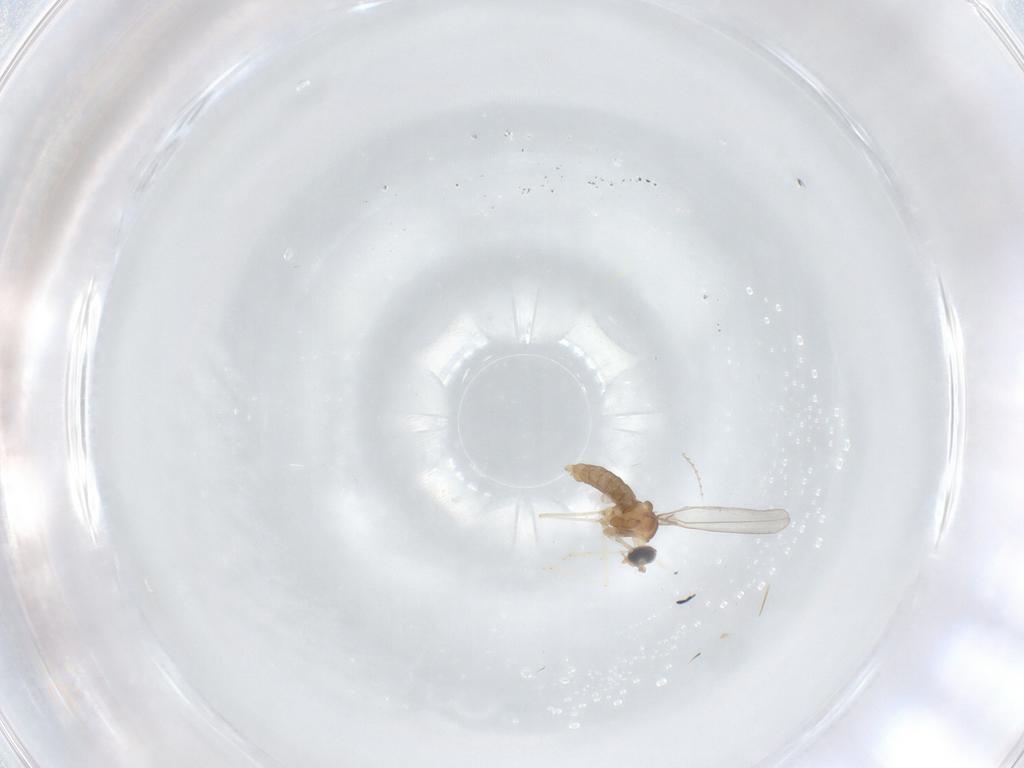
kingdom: Animalia
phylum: Arthropoda
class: Insecta
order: Diptera
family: Cecidomyiidae
